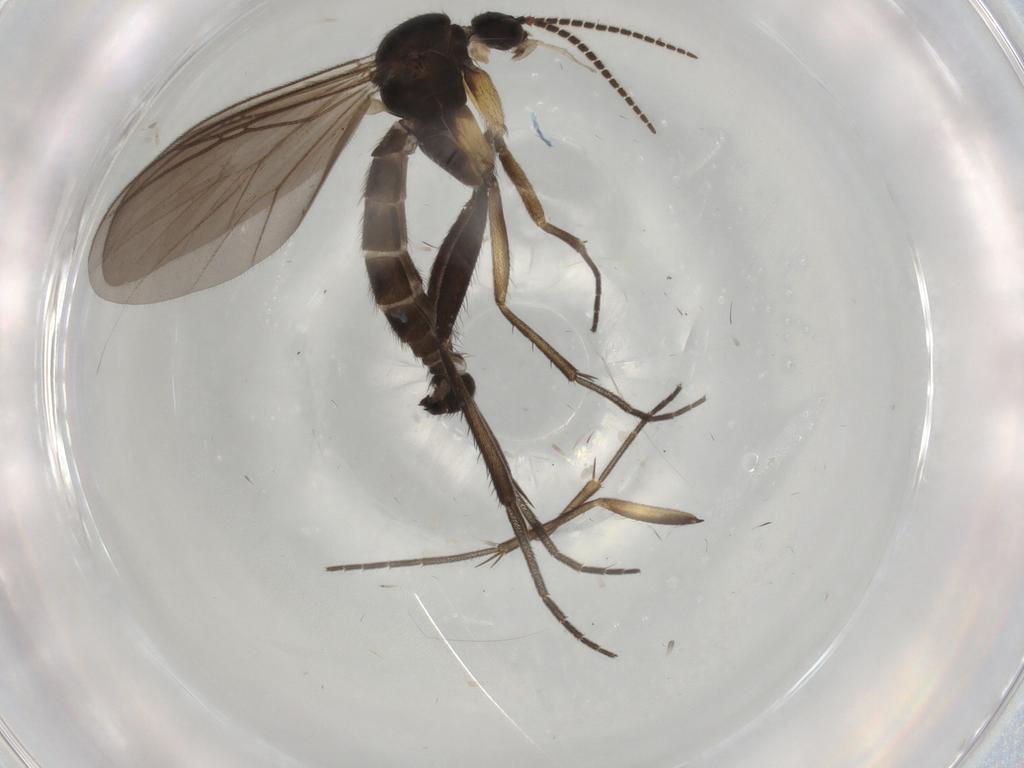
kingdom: Animalia
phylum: Arthropoda
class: Insecta
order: Diptera
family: Mycetophilidae
